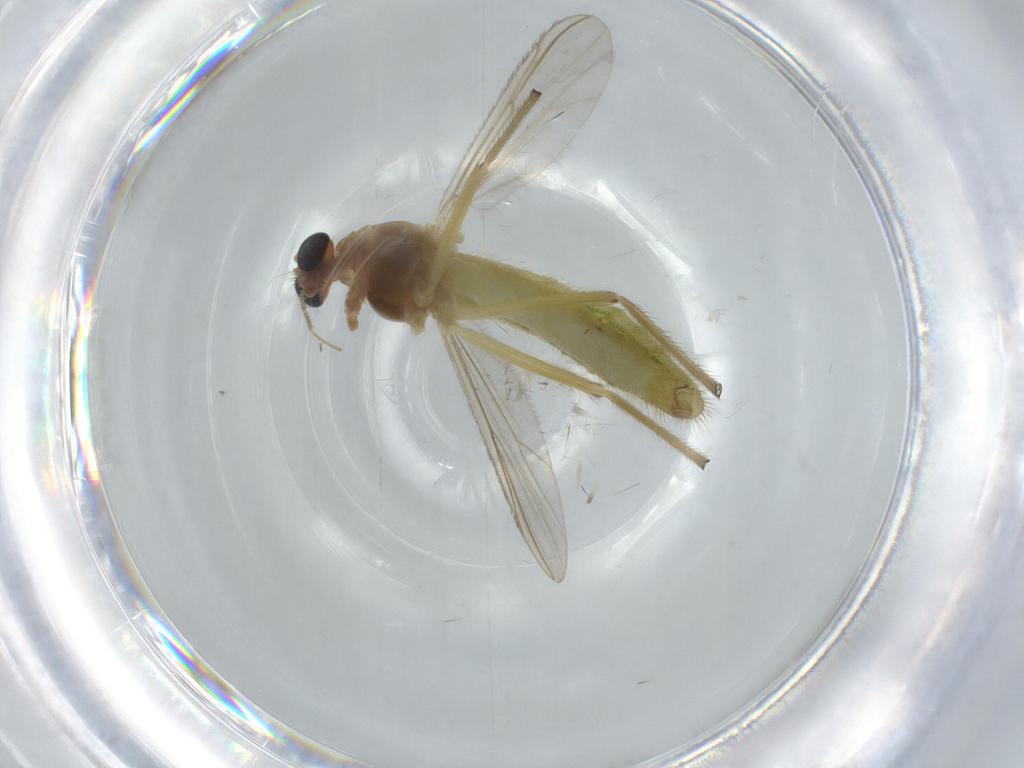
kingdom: Animalia
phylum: Arthropoda
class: Insecta
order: Diptera
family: Chironomidae
